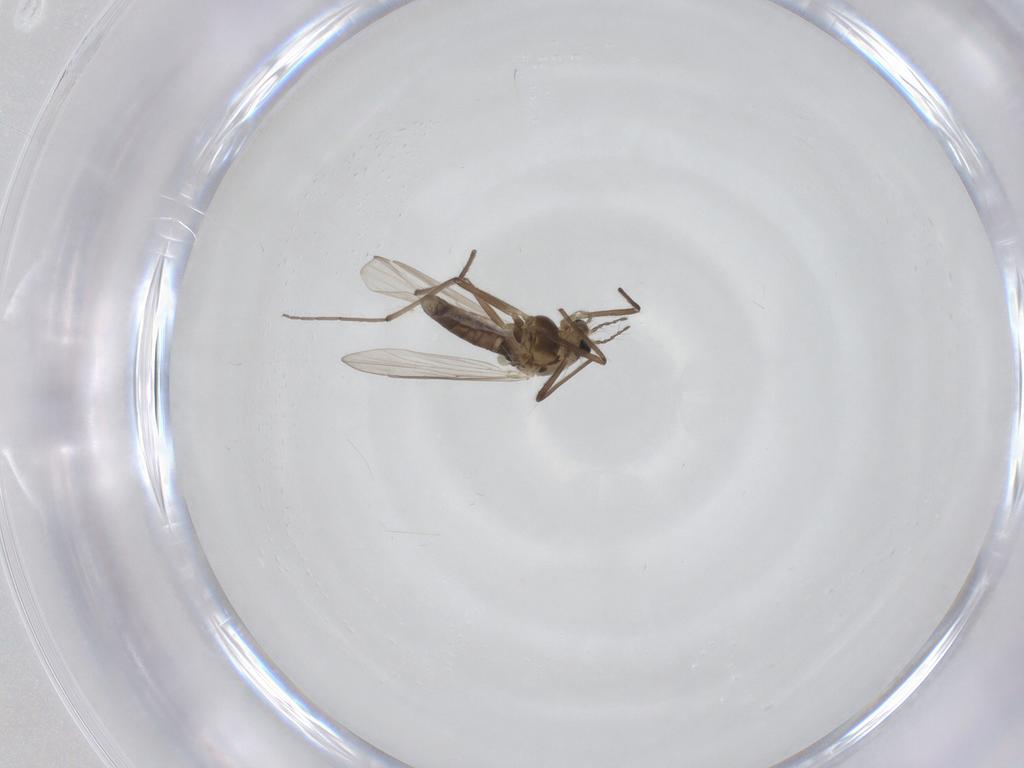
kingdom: Animalia
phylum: Arthropoda
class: Insecta
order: Diptera
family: Chironomidae
